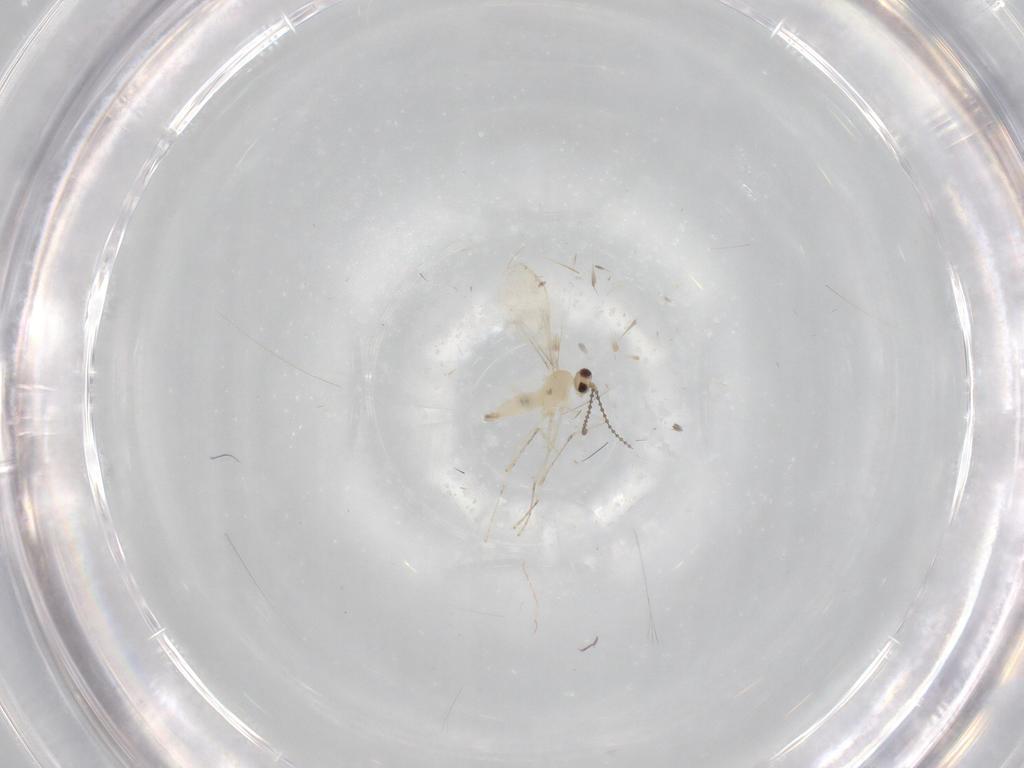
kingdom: Animalia
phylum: Arthropoda
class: Insecta
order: Diptera
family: Cecidomyiidae
